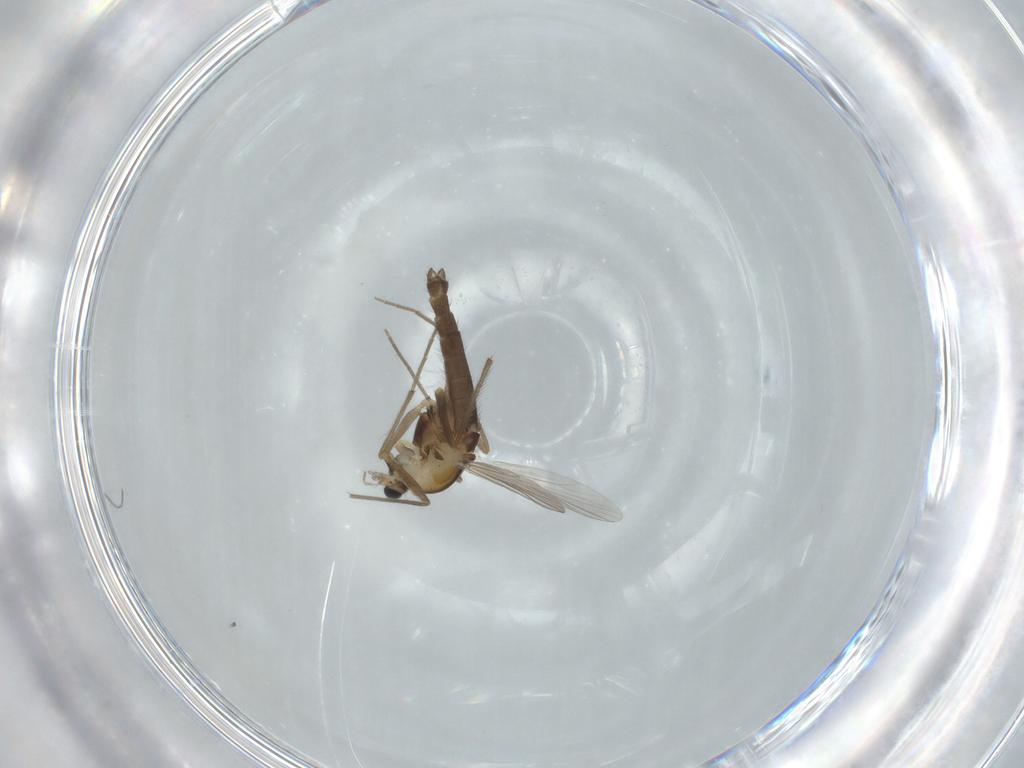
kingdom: Animalia
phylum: Arthropoda
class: Insecta
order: Diptera
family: Chironomidae
